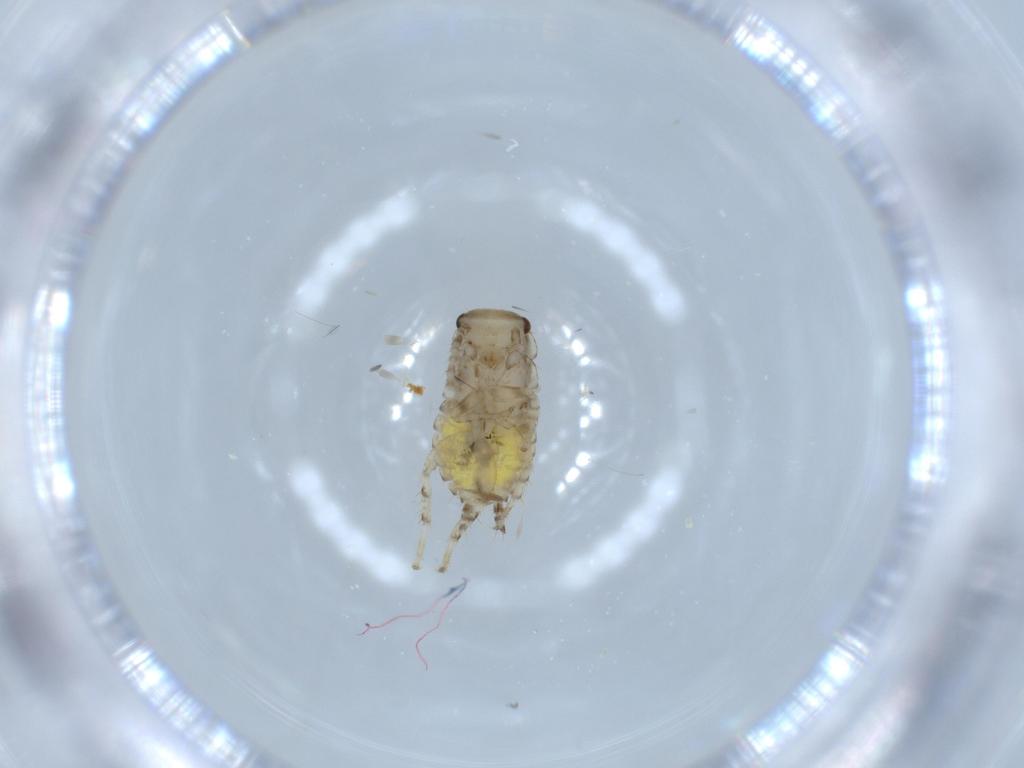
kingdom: Animalia
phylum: Arthropoda
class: Insecta
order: Blattodea
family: Ectobiidae
